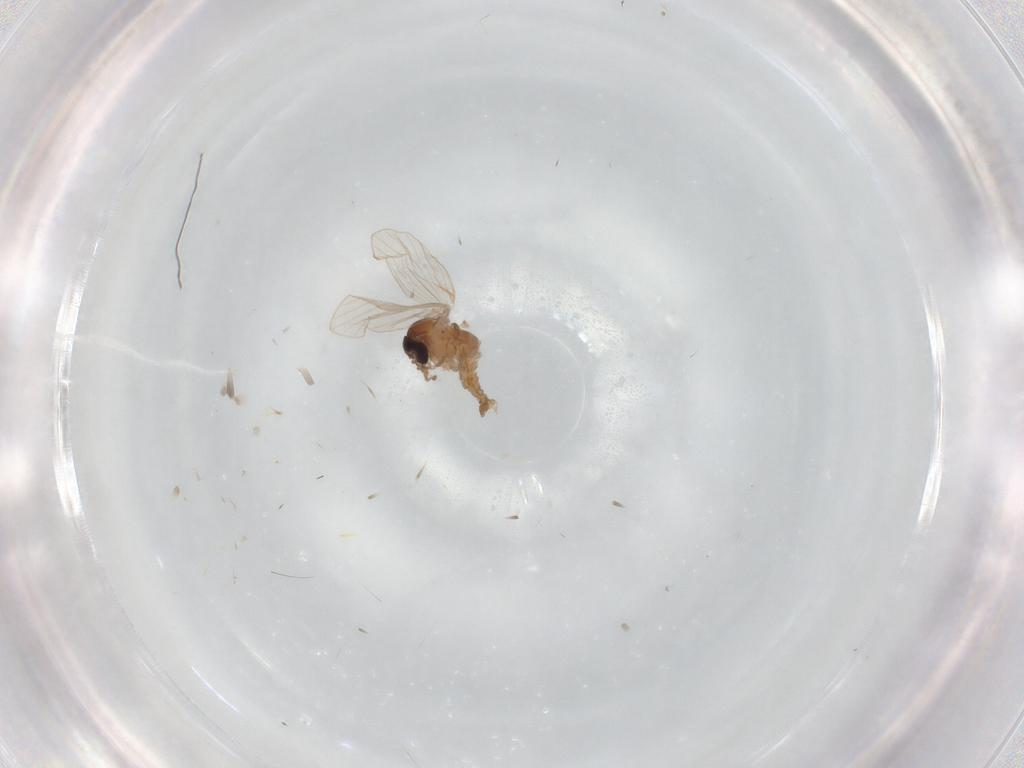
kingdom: Animalia
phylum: Arthropoda
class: Insecta
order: Diptera
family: Psychodidae
